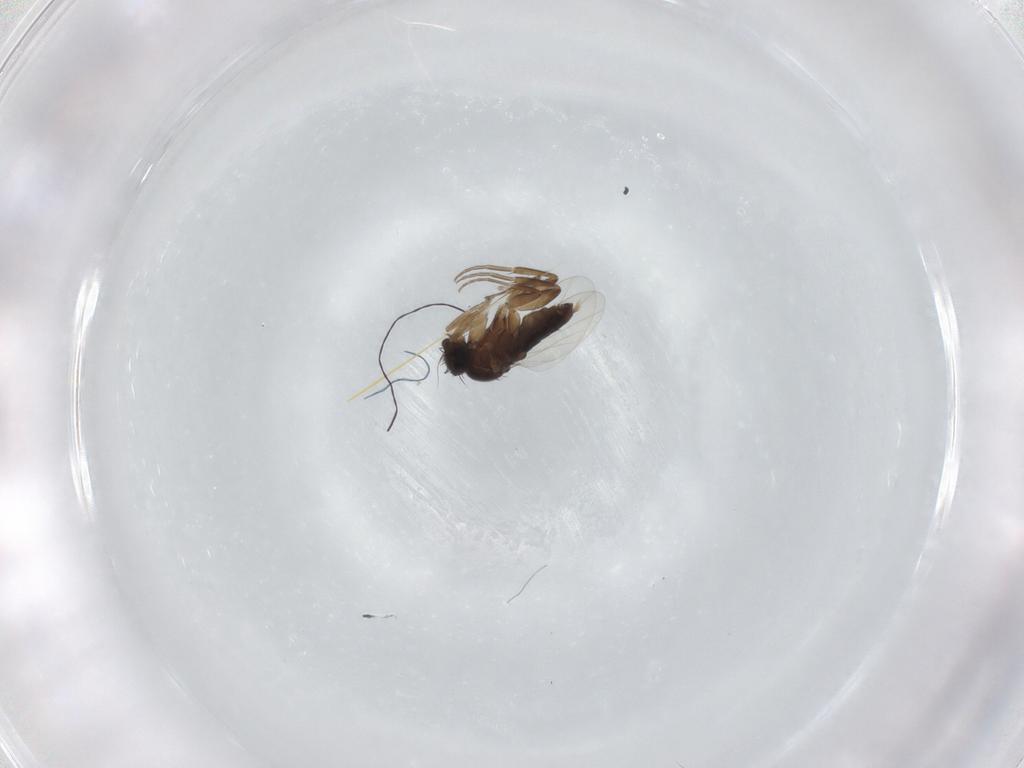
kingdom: Animalia
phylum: Arthropoda
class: Insecta
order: Diptera
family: Phoridae
